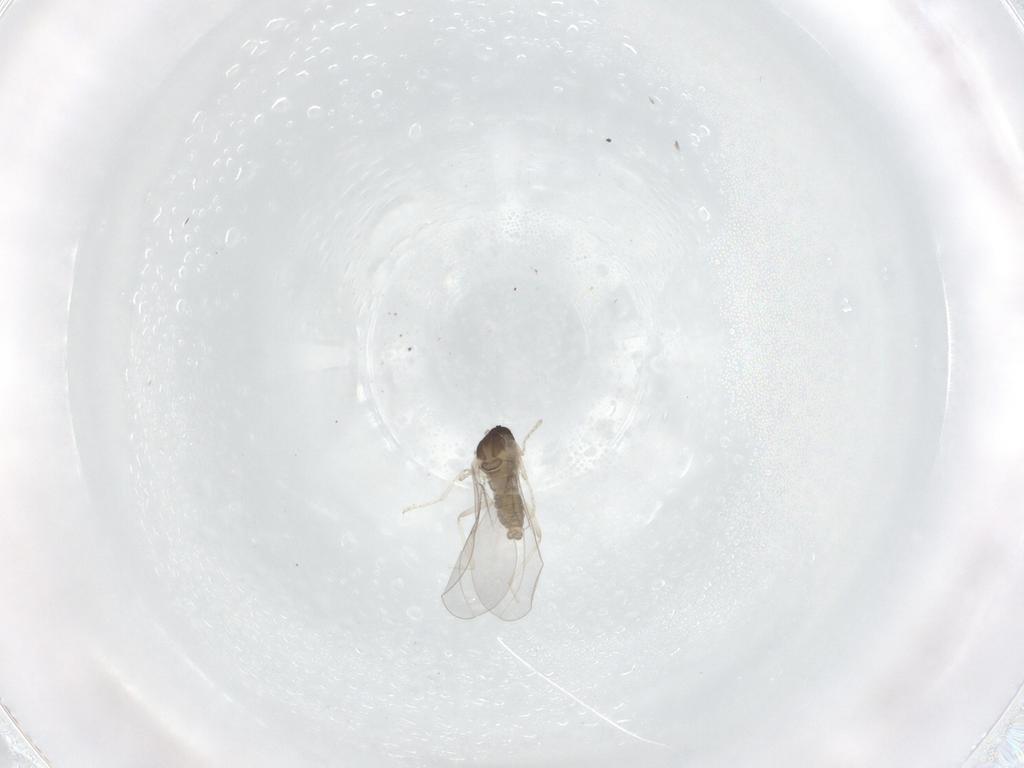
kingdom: Animalia
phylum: Arthropoda
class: Insecta
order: Diptera
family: Cecidomyiidae
